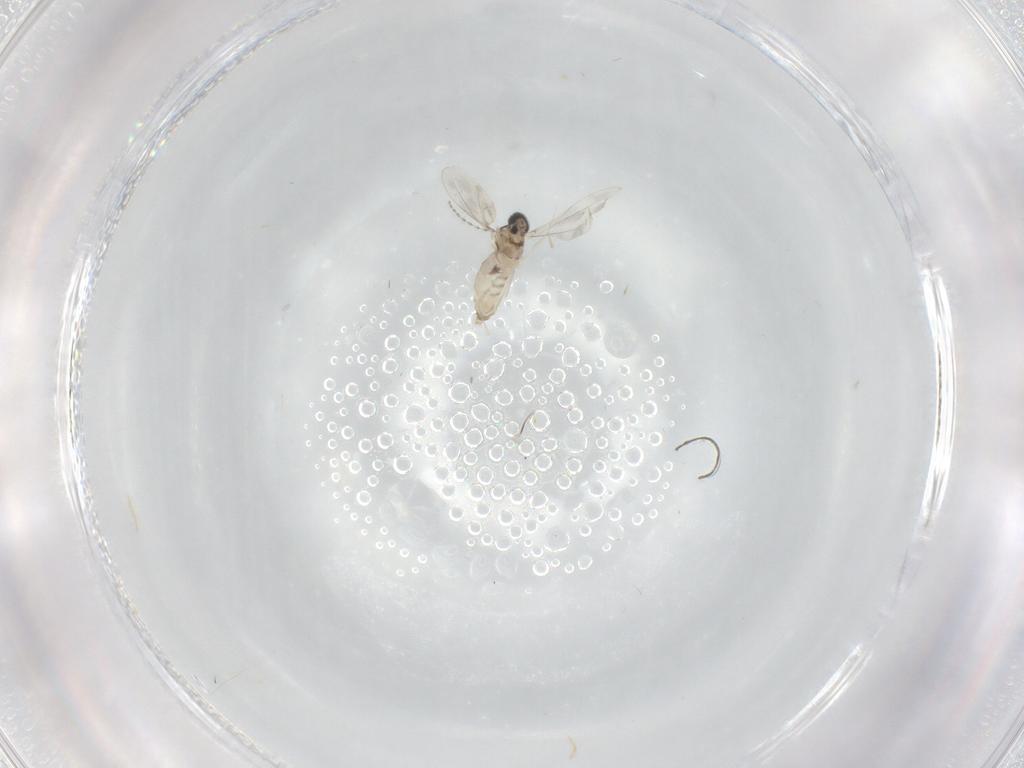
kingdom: Animalia
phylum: Arthropoda
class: Insecta
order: Diptera
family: Cecidomyiidae
